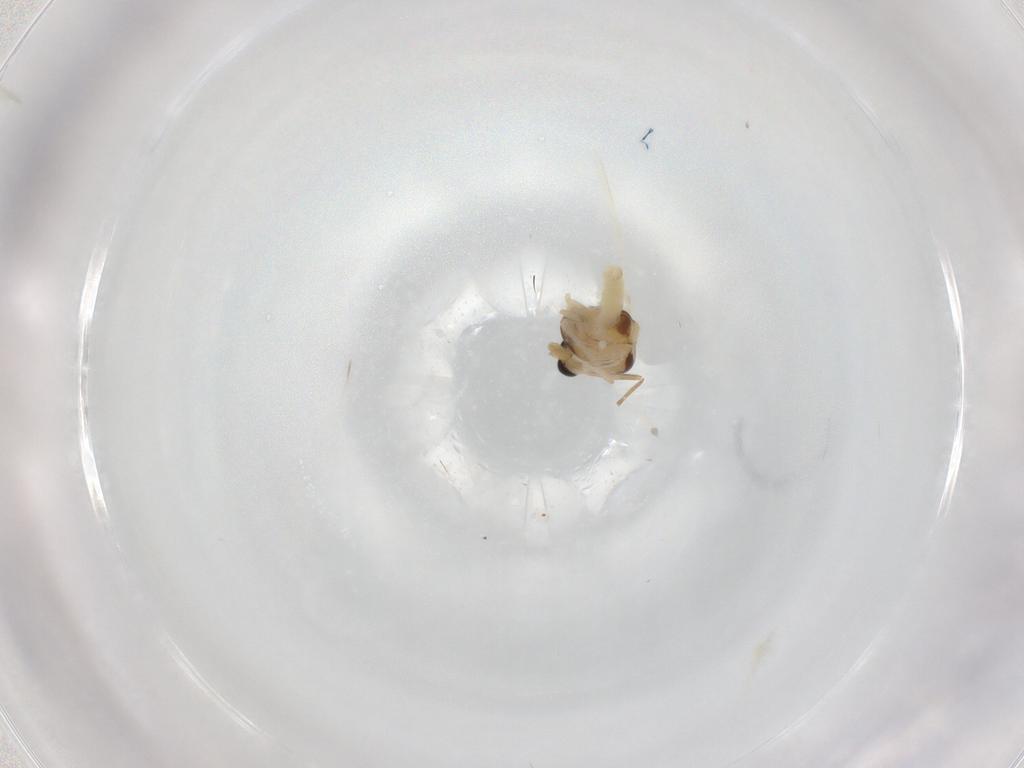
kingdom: Animalia
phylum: Arthropoda
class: Insecta
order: Diptera
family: Chironomidae
